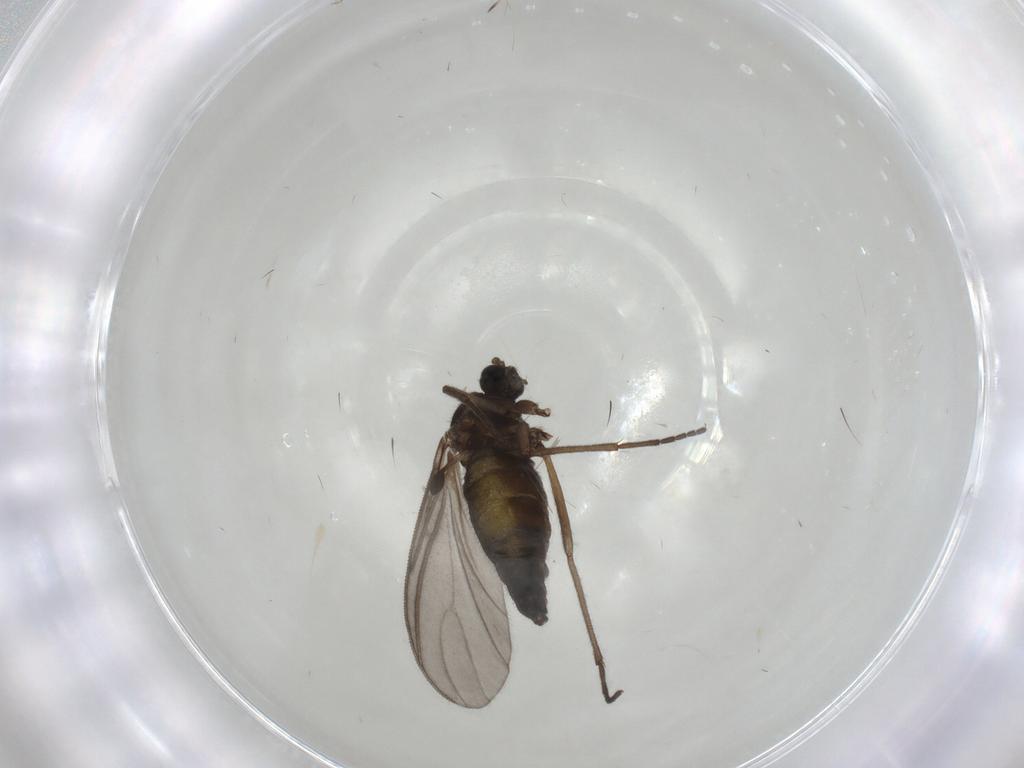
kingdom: Animalia
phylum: Arthropoda
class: Insecta
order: Diptera
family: Sciaridae
